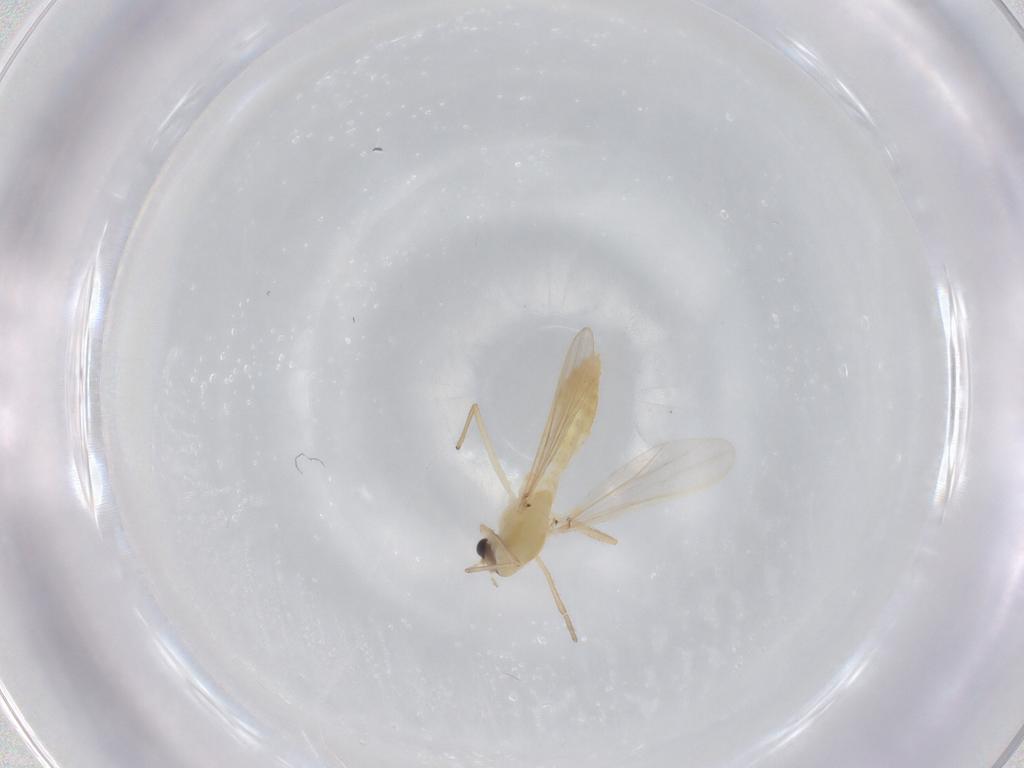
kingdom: Animalia
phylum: Arthropoda
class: Insecta
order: Diptera
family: Chironomidae
